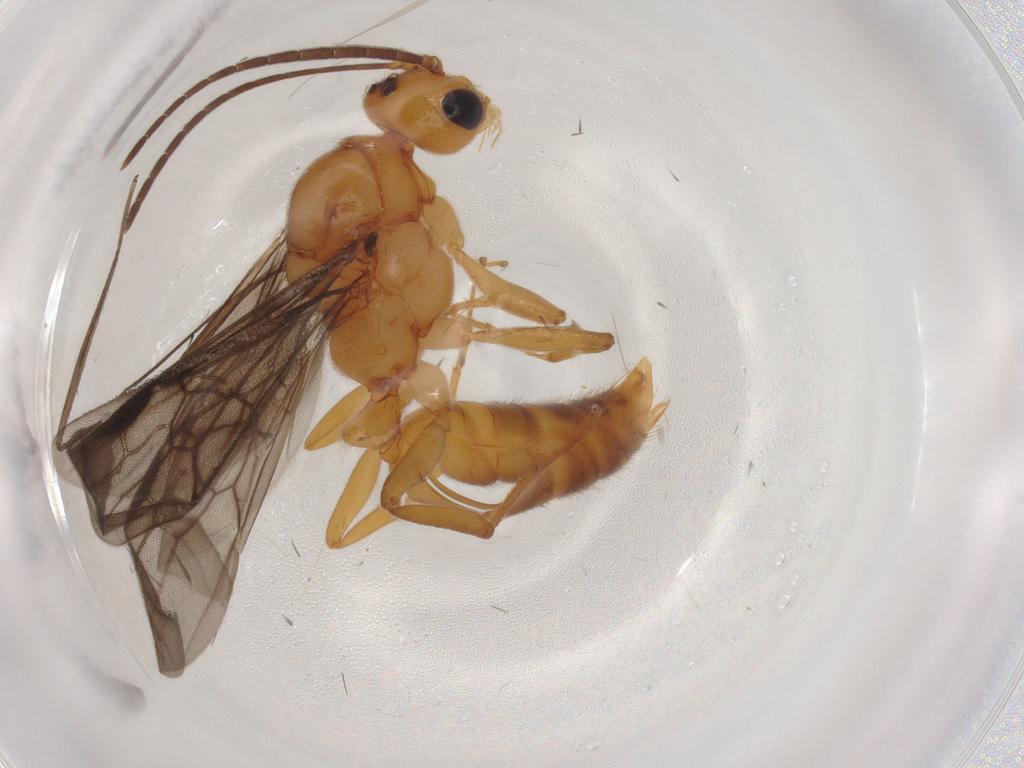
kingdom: Animalia
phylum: Arthropoda
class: Insecta
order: Hymenoptera
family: Formicidae
